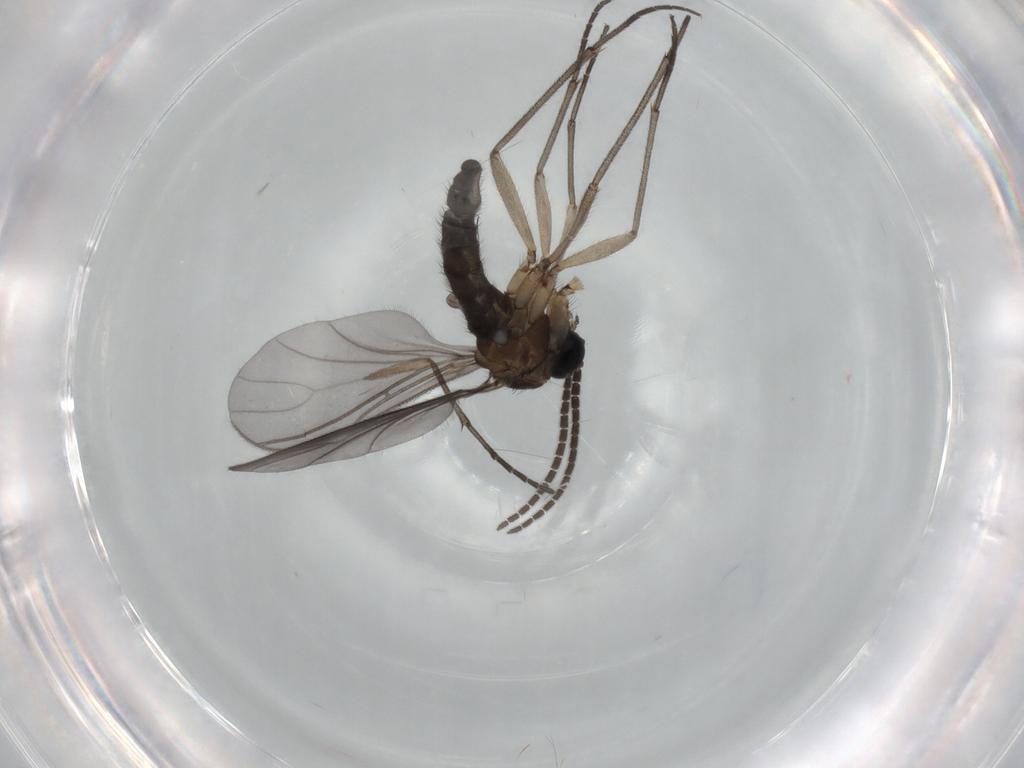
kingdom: Animalia
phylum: Arthropoda
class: Insecta
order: Diptera
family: Sciaridae
